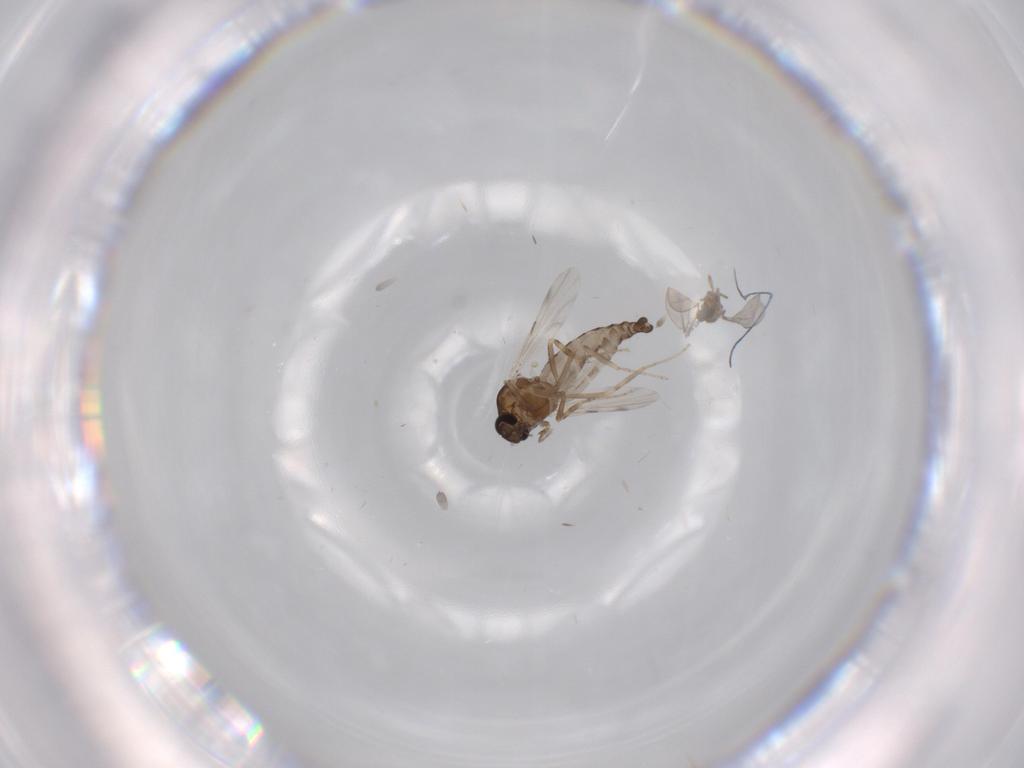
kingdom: Animalia
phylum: Arthropoda
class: Insecta
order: Diptera
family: Ceratopogonidae
